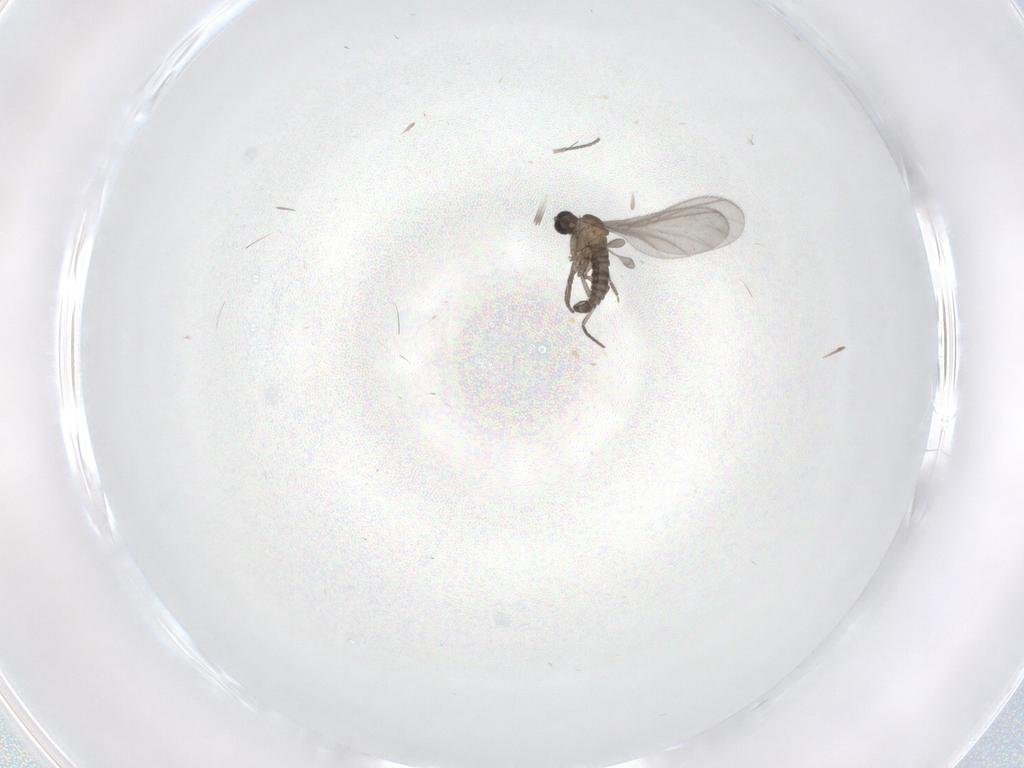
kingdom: Animalia
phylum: Arthropoda
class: Insecta
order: Diptera
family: Sciaridae
